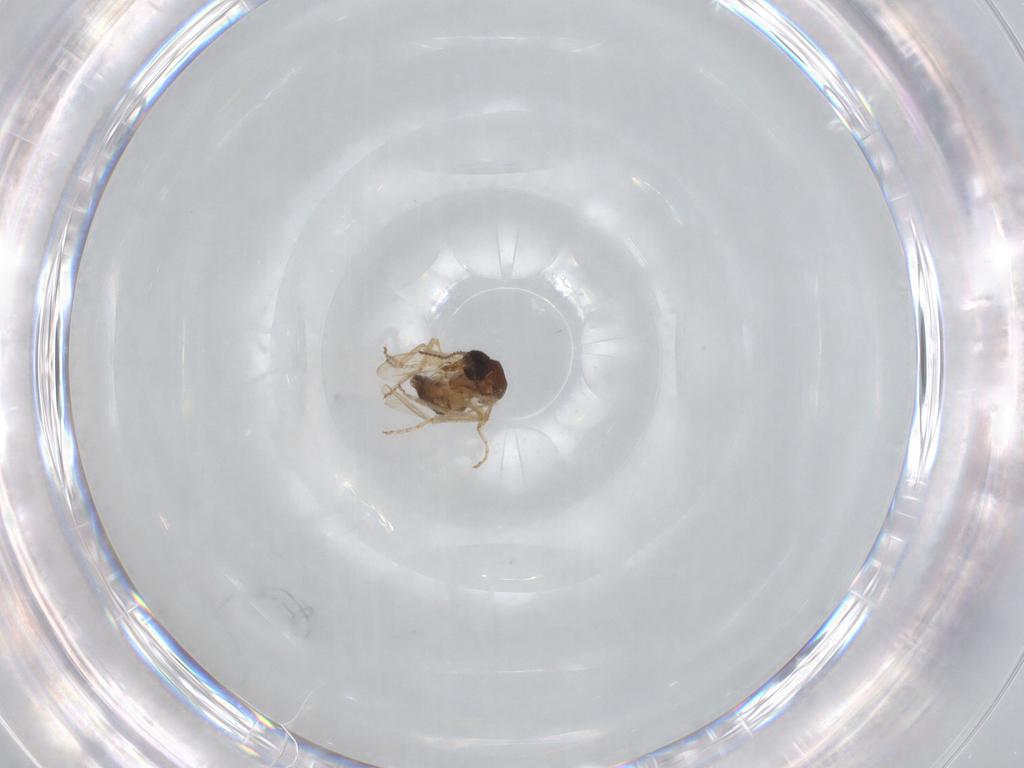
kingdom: Animalia
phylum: Arthropoda
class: Insecta
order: Diptera
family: Ceratopogonidae
